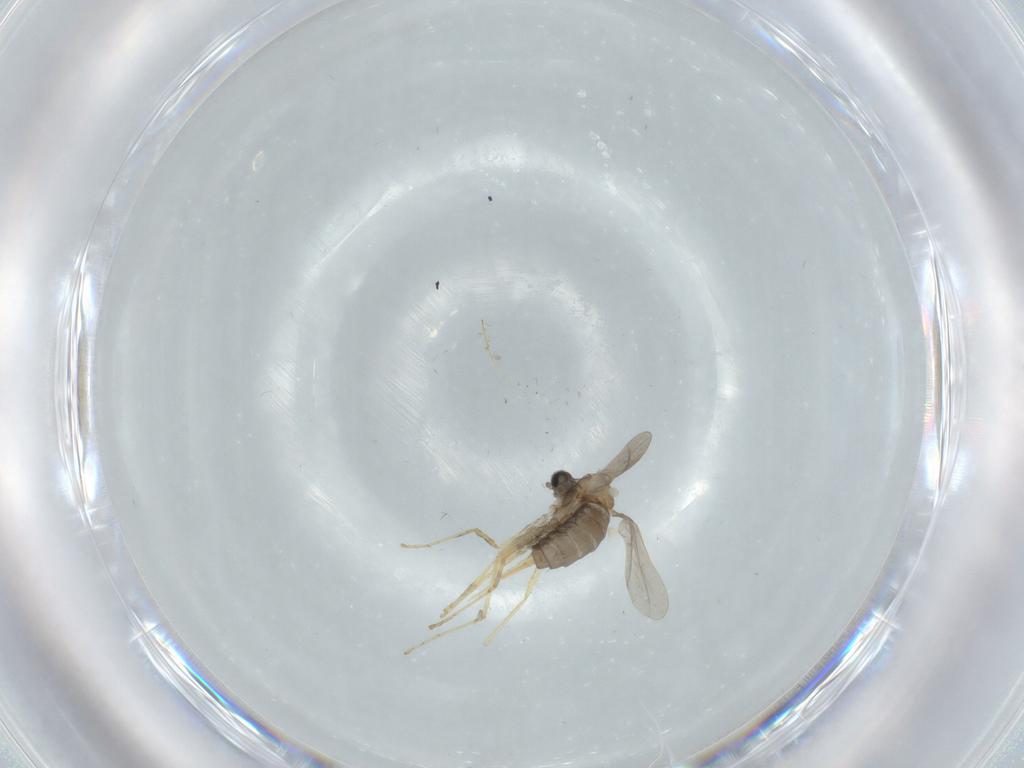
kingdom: Animalia
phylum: Arthropoda
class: Insecta
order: Diptera
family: Cecidomyiidae
